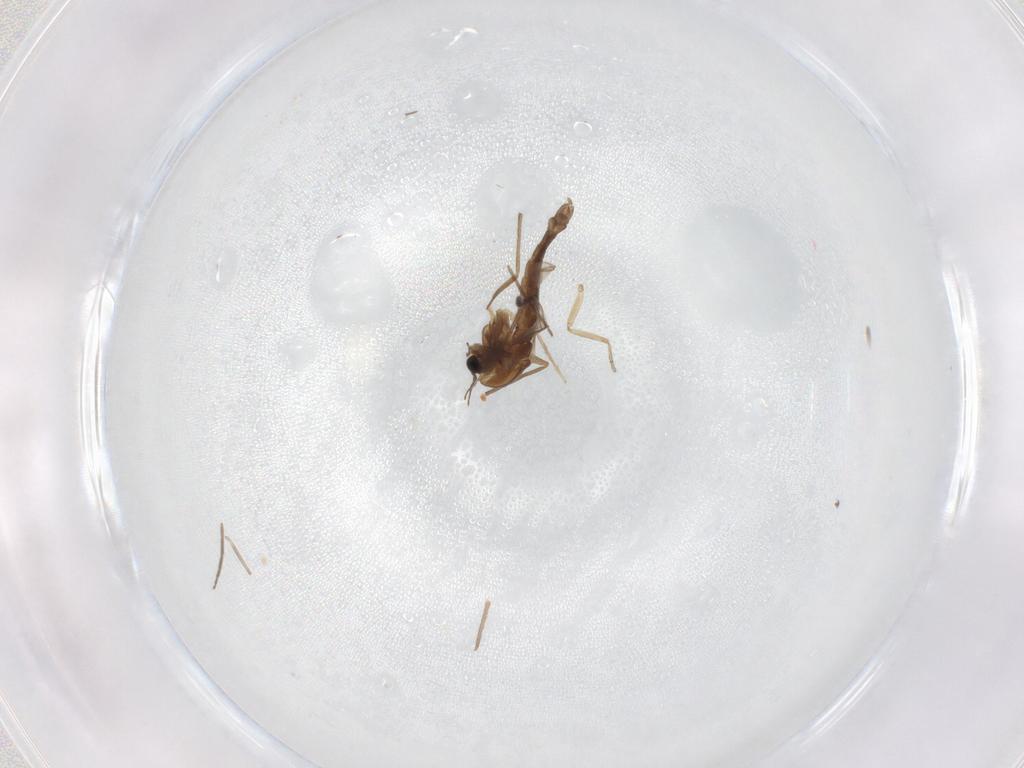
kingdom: Animalia
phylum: Arthropoda
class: Insecta
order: Diptera
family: Chironomidae
